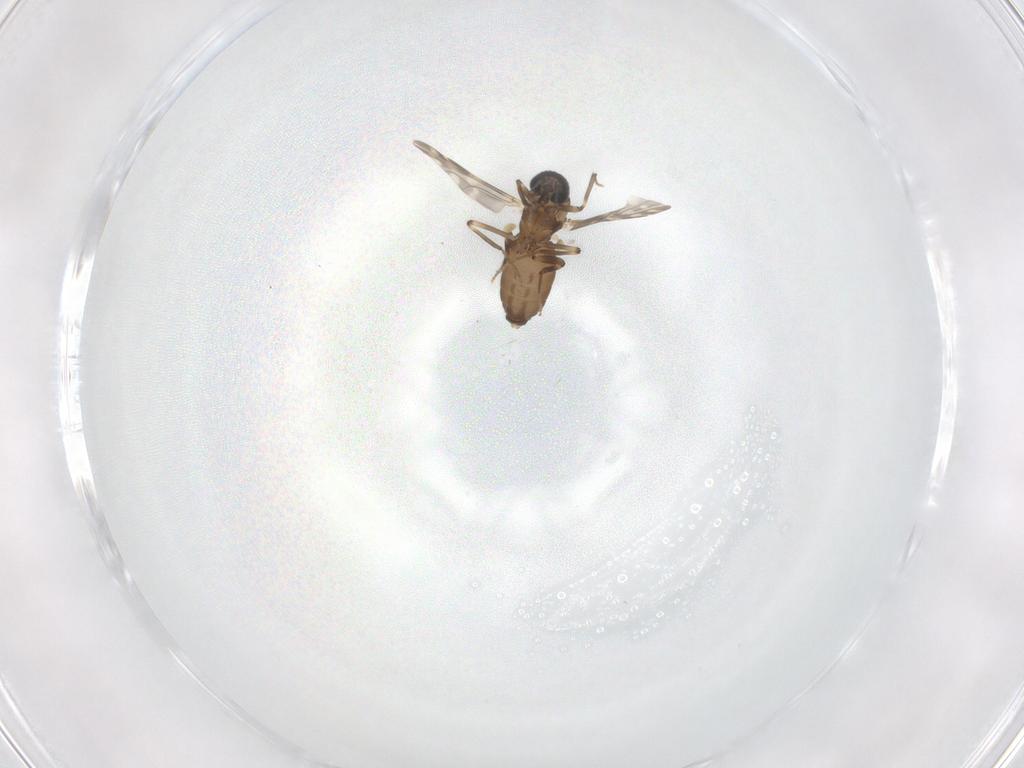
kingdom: Animalia
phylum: Arthropoda
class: Insecta
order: Diptera
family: Ceratopogonidae
